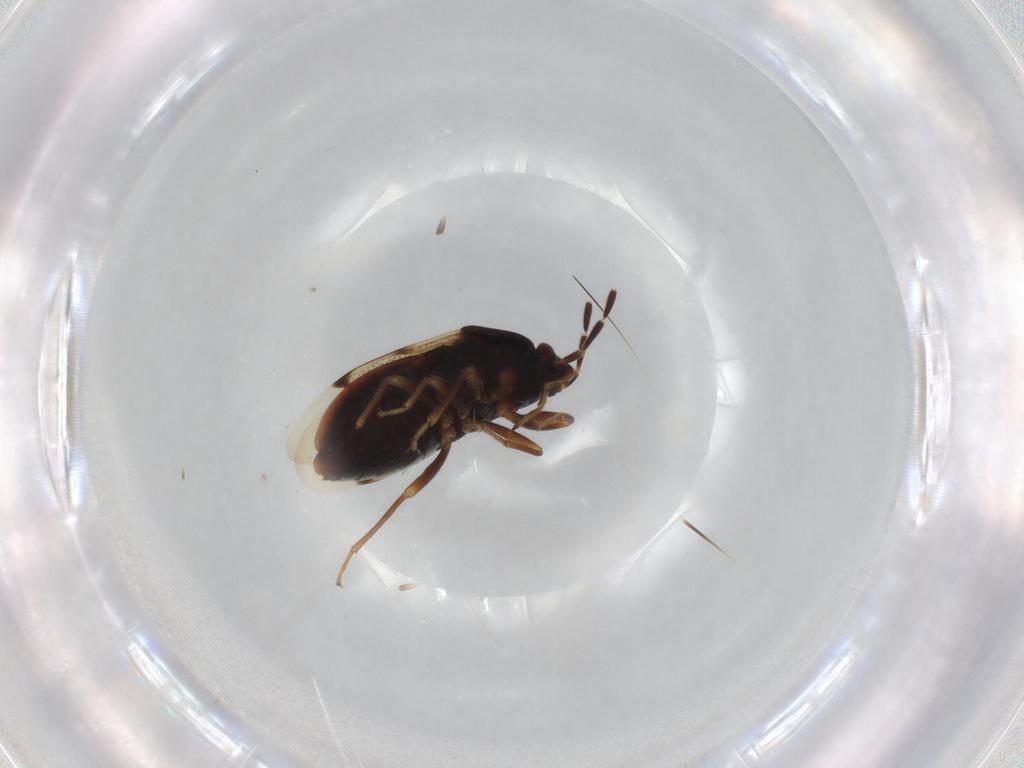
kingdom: Animalia
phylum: Arthropoda
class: Insecta
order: Hemiptera
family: Rhyparochromidae
